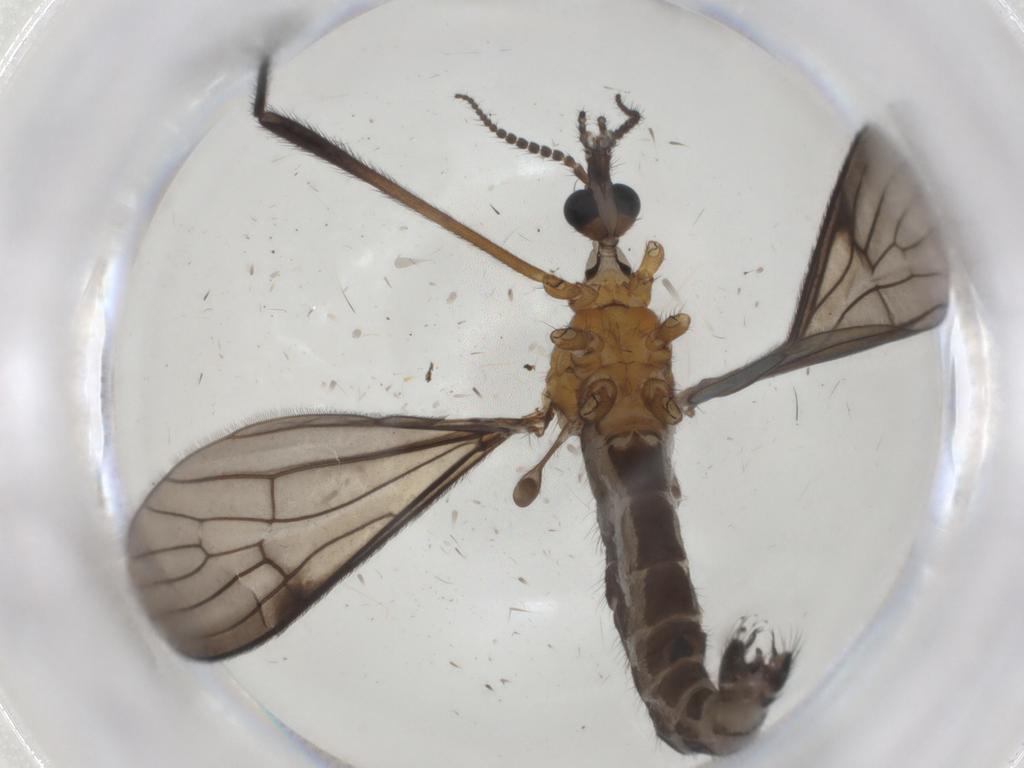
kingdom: Animalia
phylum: Arthropoda
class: Insecta
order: Diptera
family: Limoniidae
